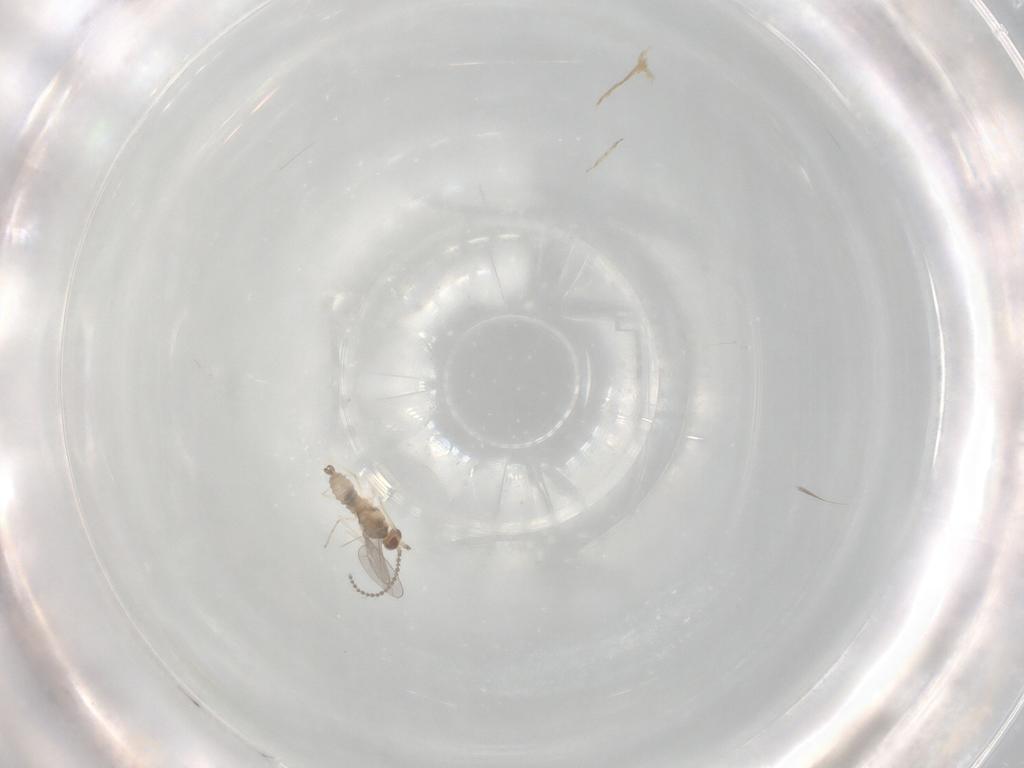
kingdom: Animalia
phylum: Arthropoda
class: Insecta
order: Diptera
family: Cecidomyiidae
